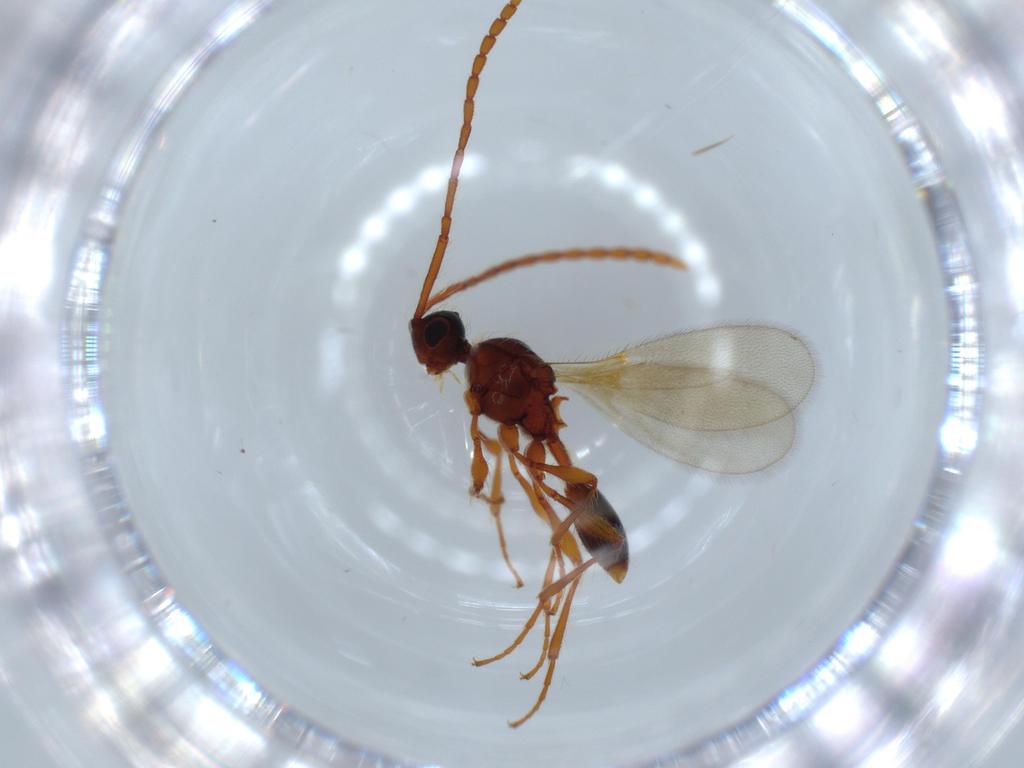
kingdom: Animalia
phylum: Arthropoda
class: Insecta
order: Hymenoptera
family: Diapriidae
